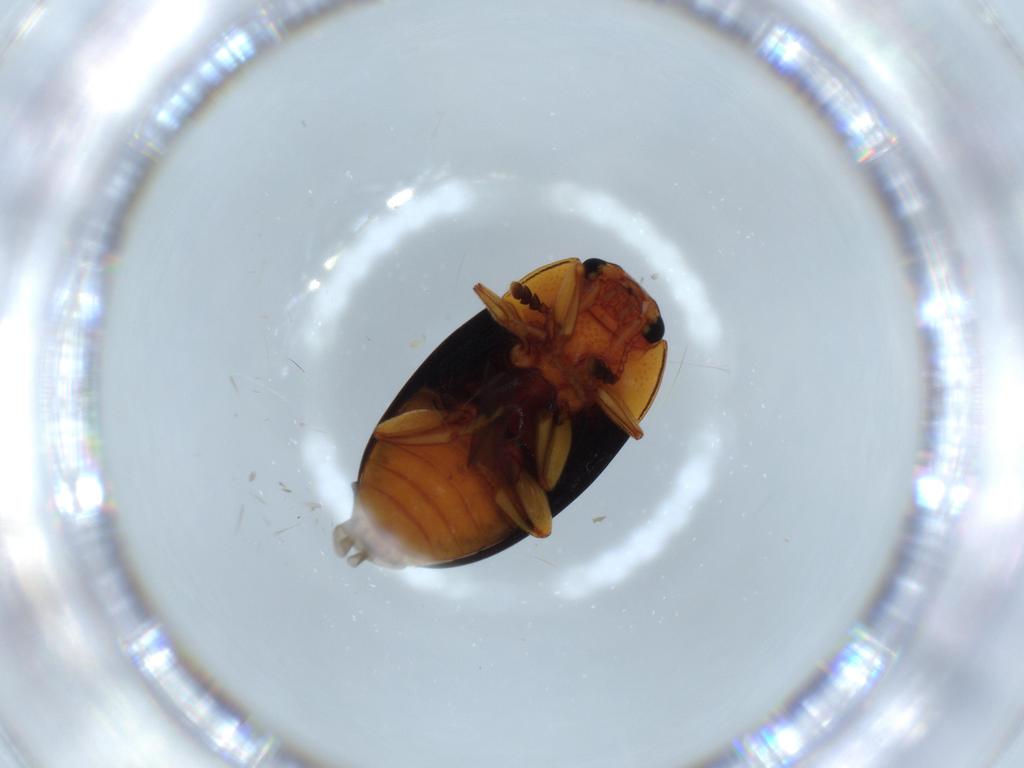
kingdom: Animalia
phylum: Arthropoda
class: Insecta
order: Coleoptera
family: Erotylidae
